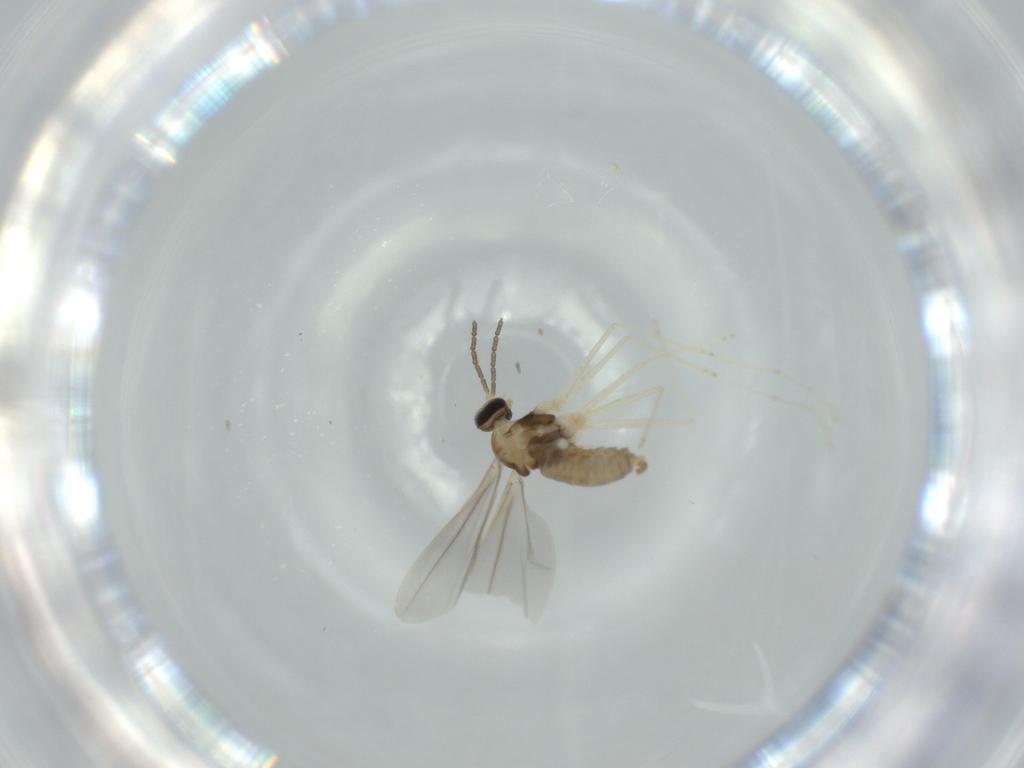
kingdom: Animalia
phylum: Arthropoda
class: Insecta
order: Diptera
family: Cecidomyiidae
